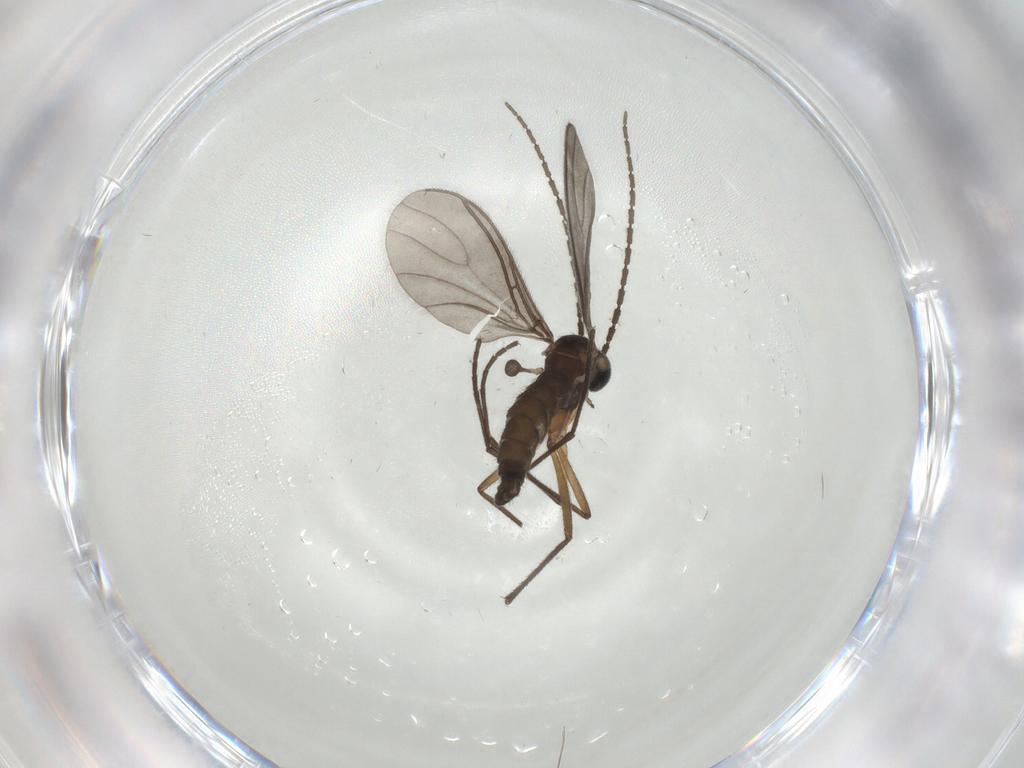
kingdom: Animalia
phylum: Arthropoda
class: Insecta
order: Diptera
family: Sciaridae
